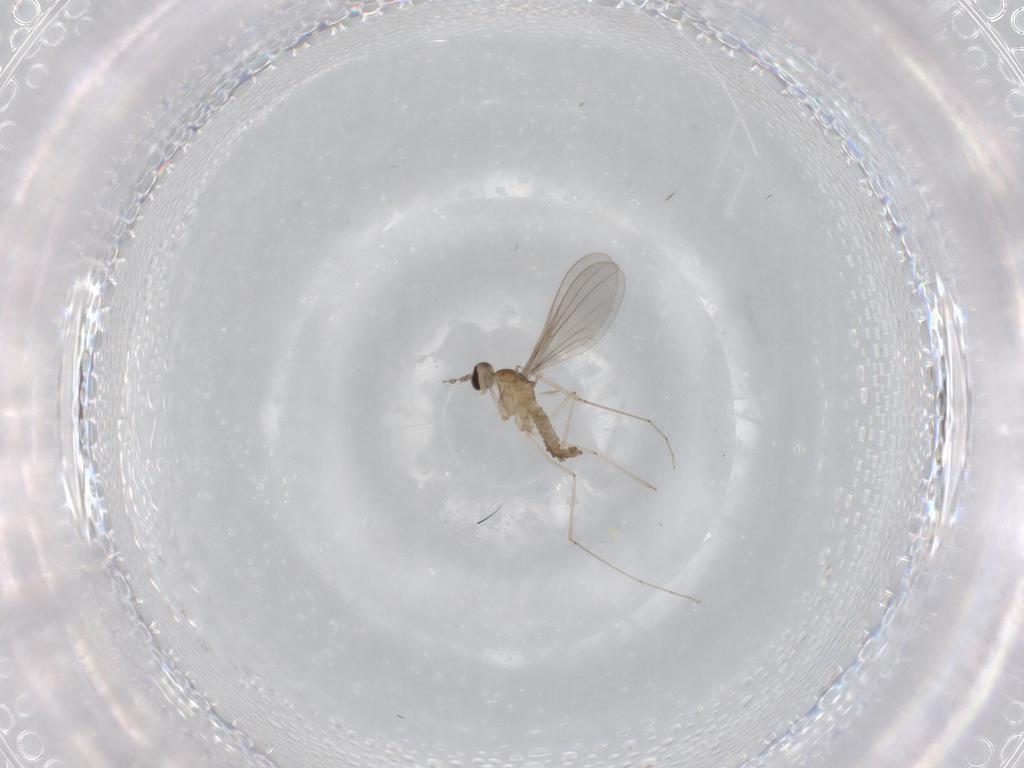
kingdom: Animalia
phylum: Arthropoda
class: Insecta
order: Diptera
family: Cecidomyiidae
